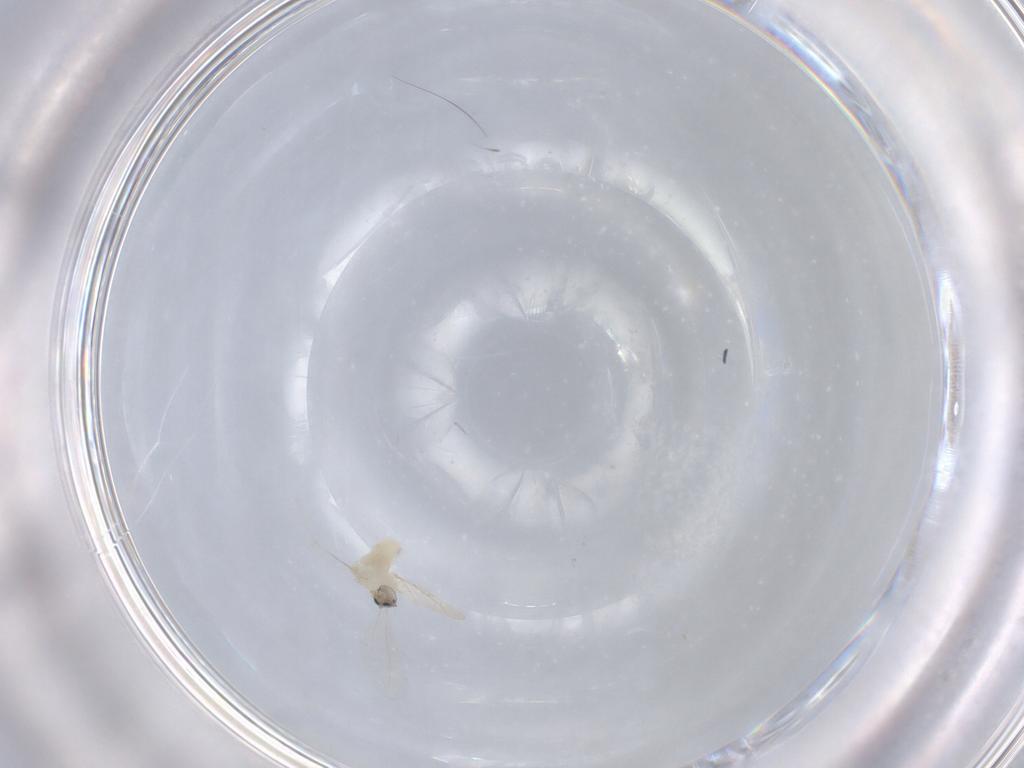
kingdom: Animalia
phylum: Arthropoda
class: Insecta
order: Diptera
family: Cecidomyiidae
